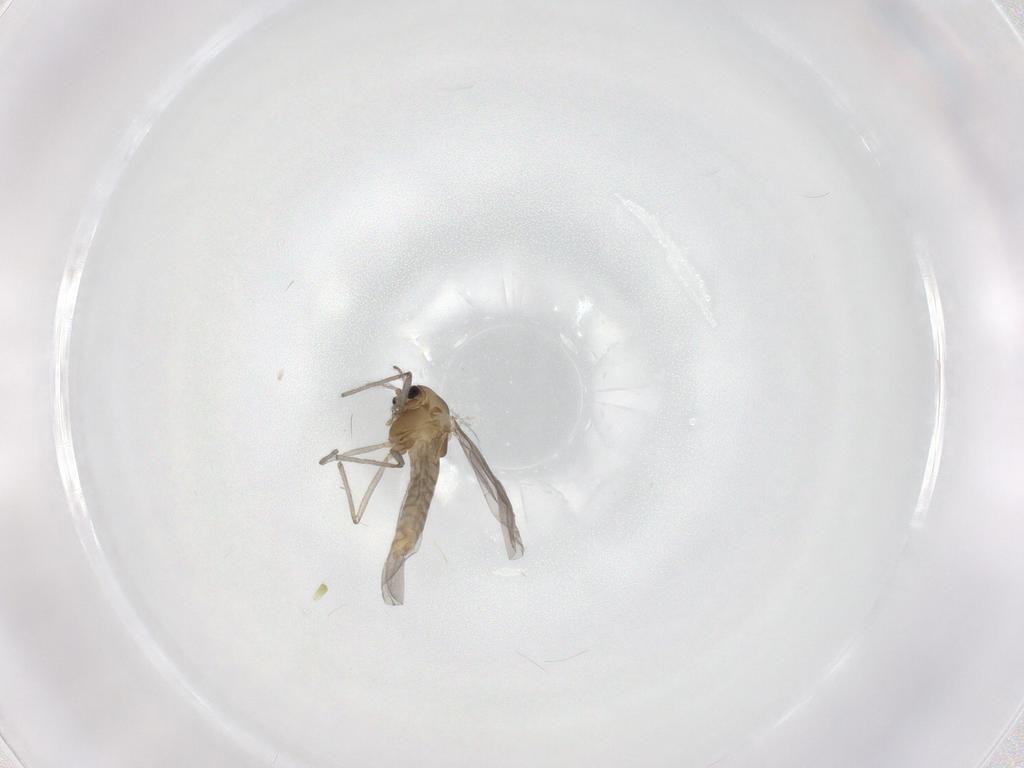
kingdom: Animalia
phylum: Arthropoda
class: Insecta
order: Diptera
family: Chironomidae
